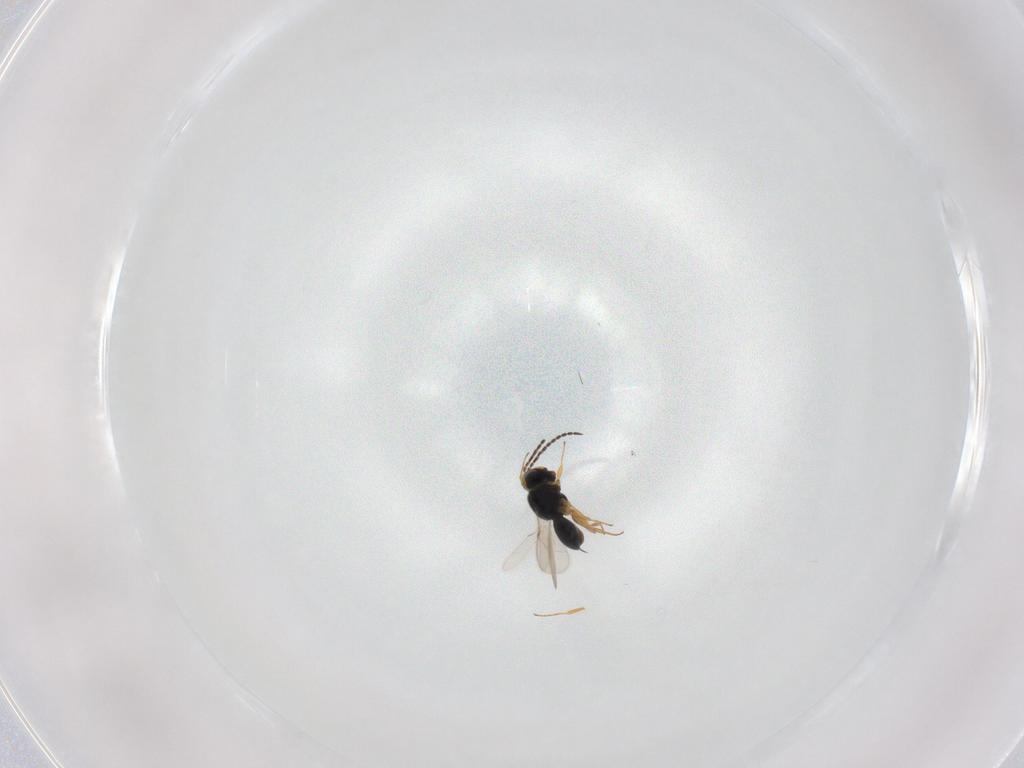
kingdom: Animalia
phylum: Arthropoda
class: Insecta
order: Hymenoptera
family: Scelionidae
